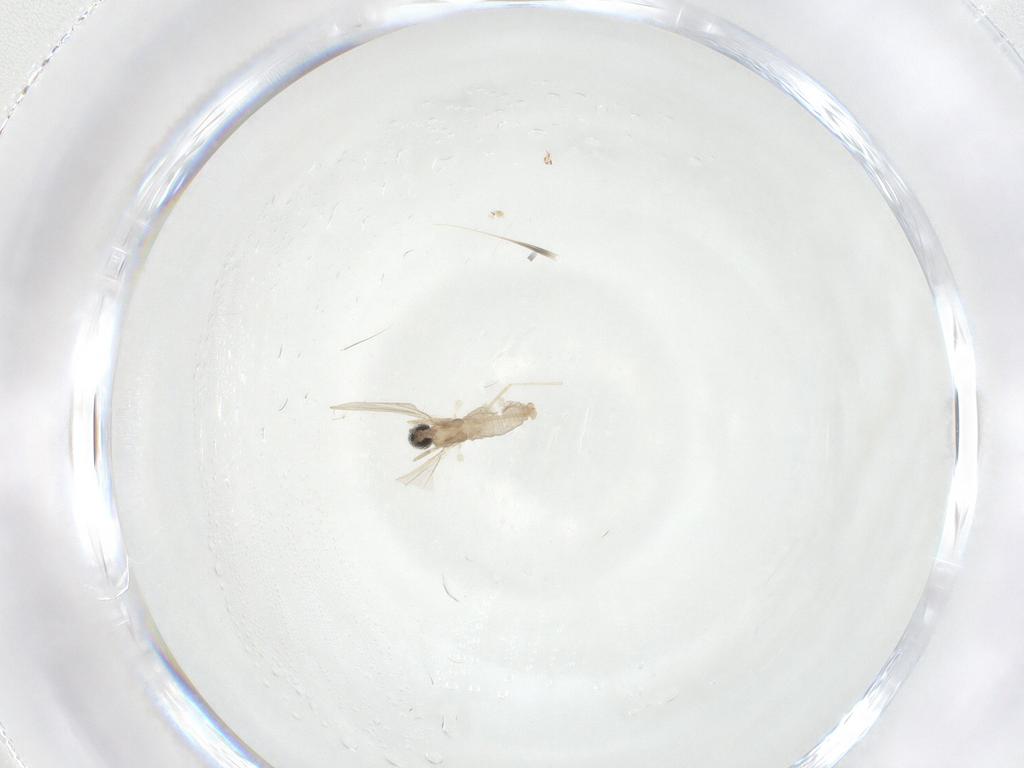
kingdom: Animalia
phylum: Arthropoda
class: Insecta
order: Diptera
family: Cecidomyiidae
